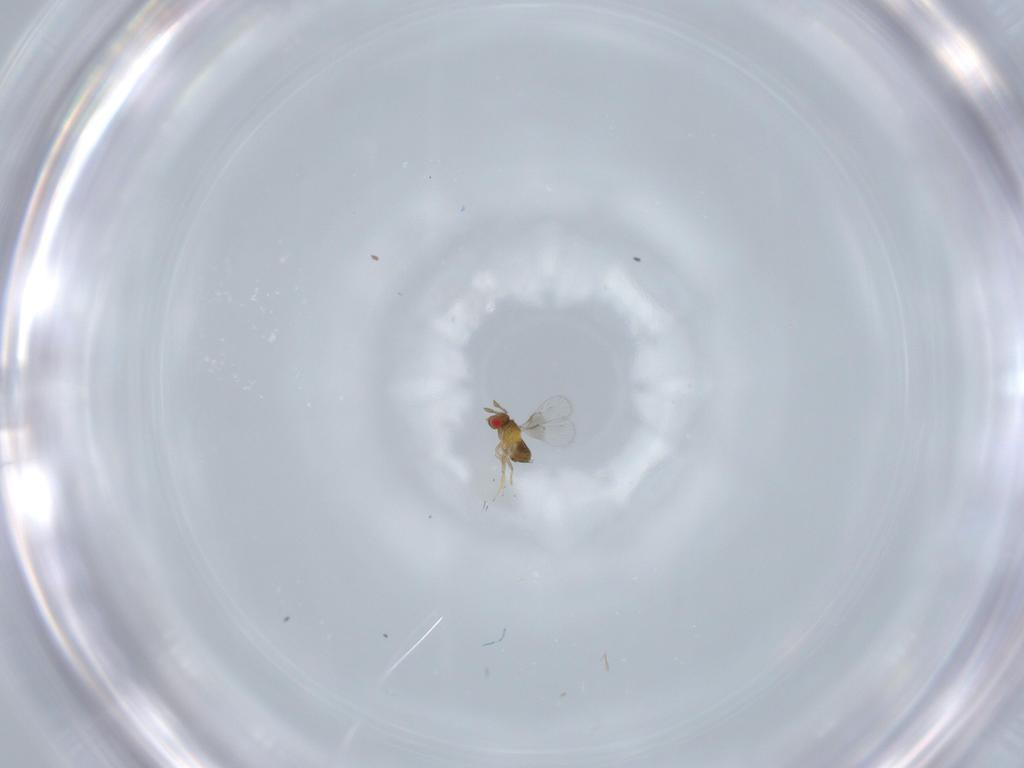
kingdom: Animalia
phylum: Arthropoda
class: Insecta
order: Hymenoptera
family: Trichogrammatidae
